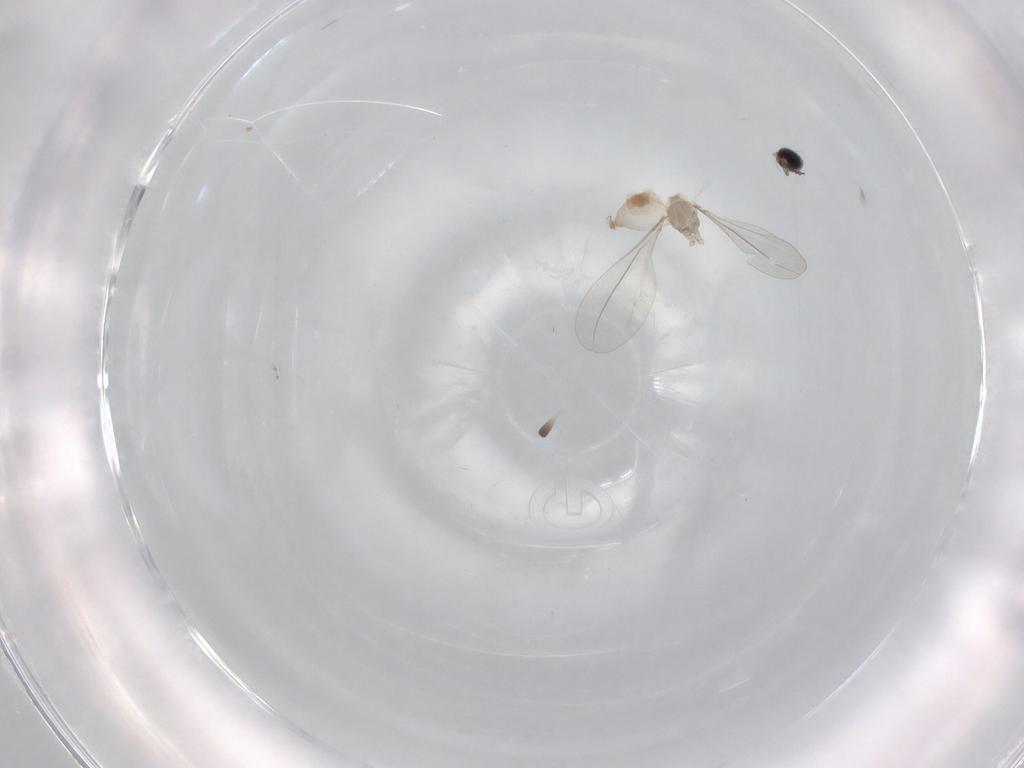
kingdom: Animalia
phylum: Arthropoda
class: Insecta
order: Diptera
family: Cecidomyiidae
